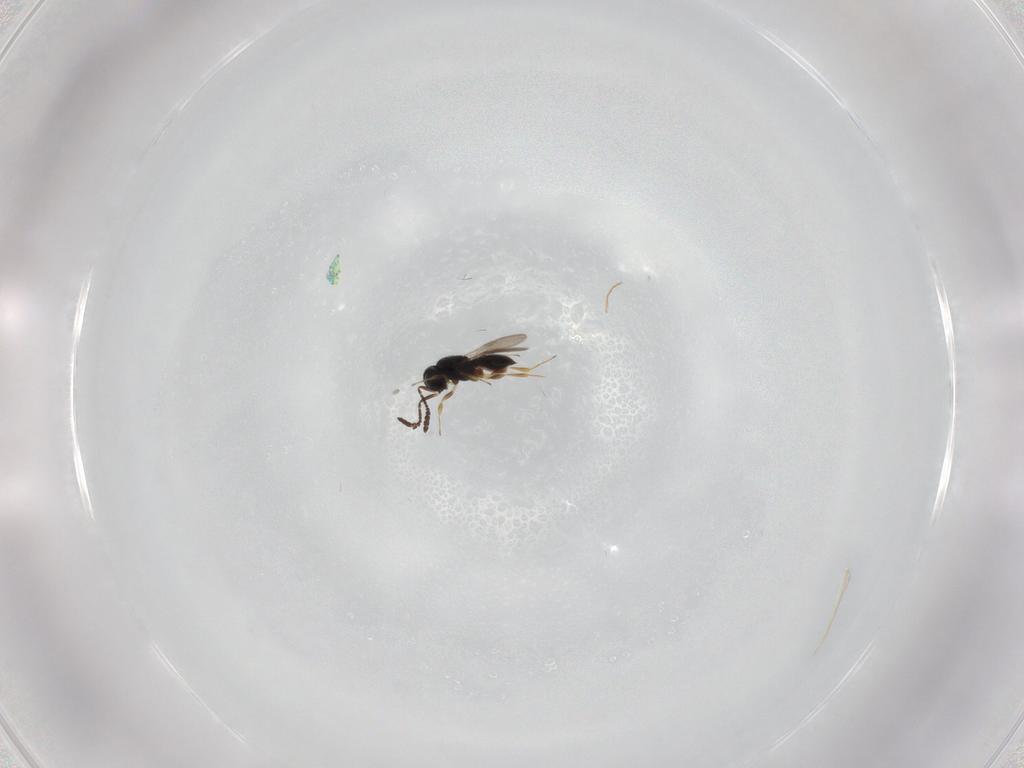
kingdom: Animalia
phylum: Arthropoda
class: Insecta
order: Hymenoptera
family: Scelionidae
